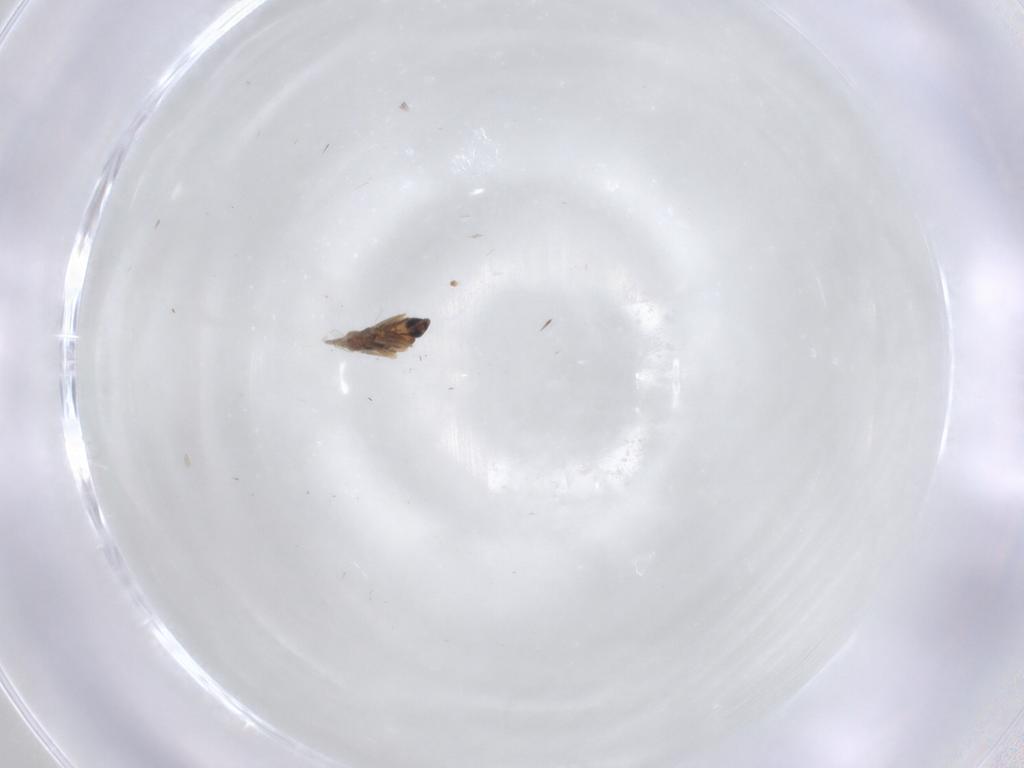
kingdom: Animalia
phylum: Arthropoda
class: Insecta
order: Diptera
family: Cecidomyiidae
